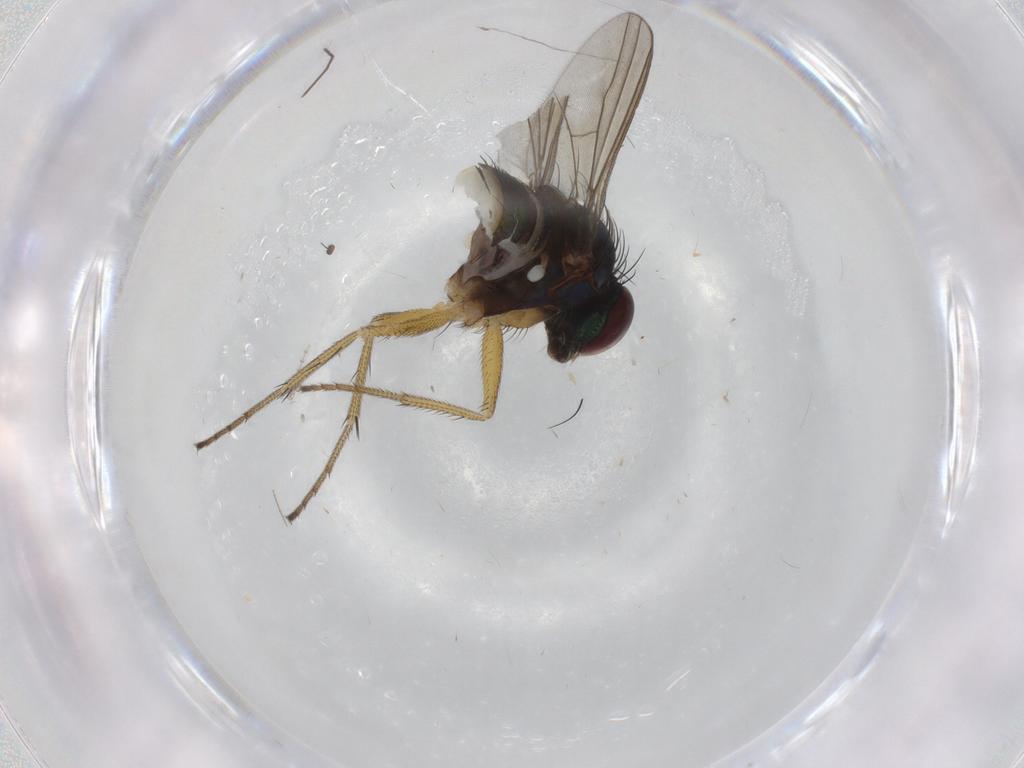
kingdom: Animalia
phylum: Arthropoda
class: Insecta
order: Diptera
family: Dolichopodidae
